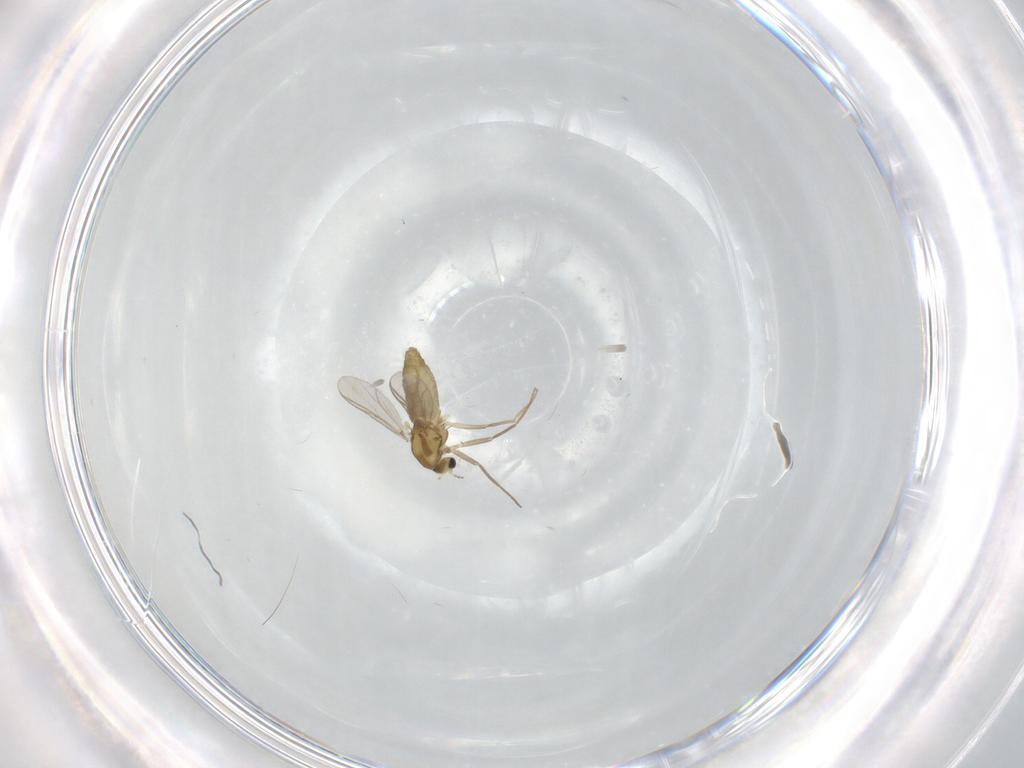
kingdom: Animalia
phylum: Arthropoda
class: Insecta
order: Diptera
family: Chironomidae
